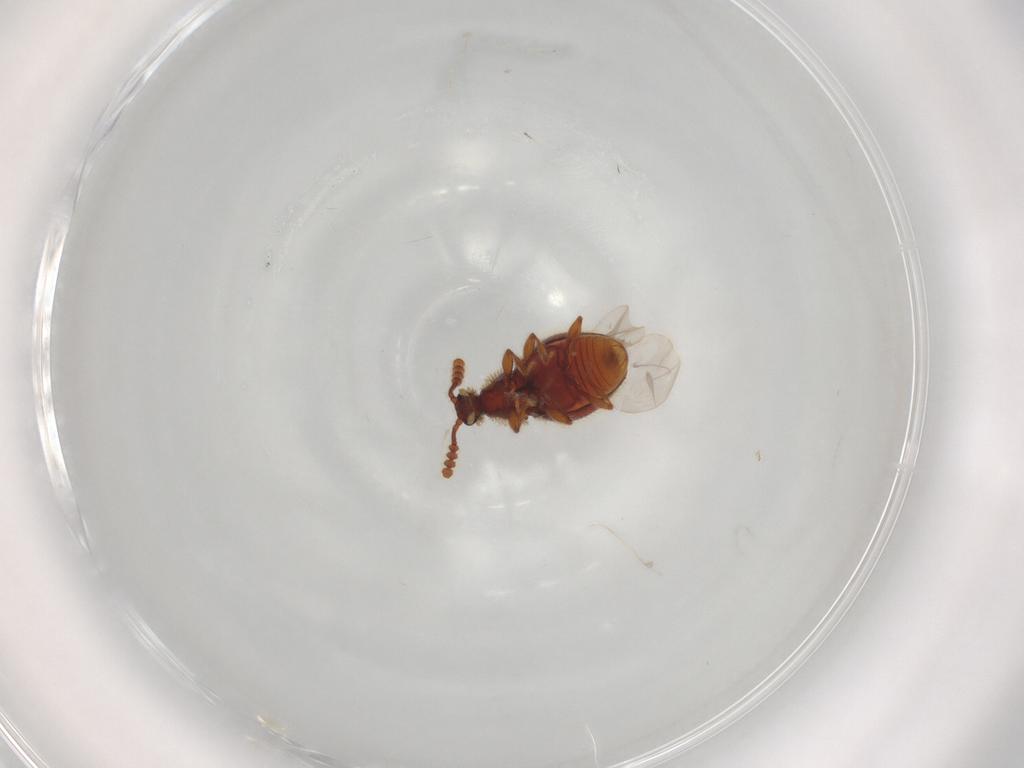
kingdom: Animalia
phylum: Arthropoda
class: Insecta
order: Coleoptera
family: Staphylinidae
